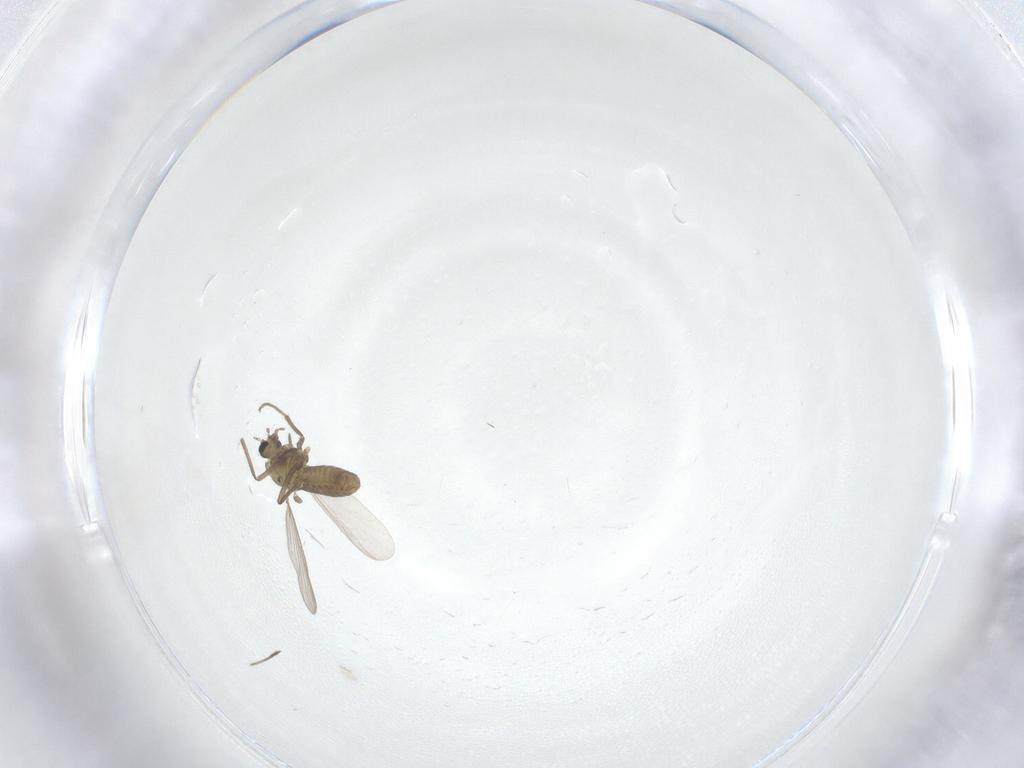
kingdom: Animalia
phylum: Arthropoda
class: Insecta
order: Diptera
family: Chironomidae
